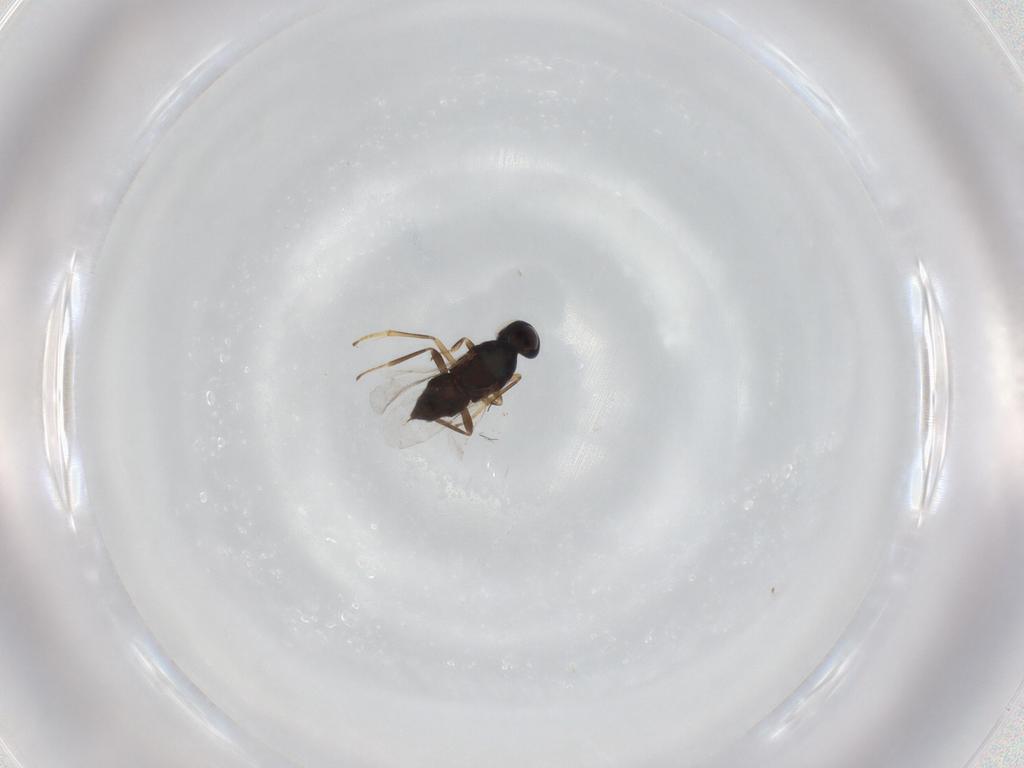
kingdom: Animalia
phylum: Arthropoda
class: Insecta
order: Hymenoptera
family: Encyrtidae
